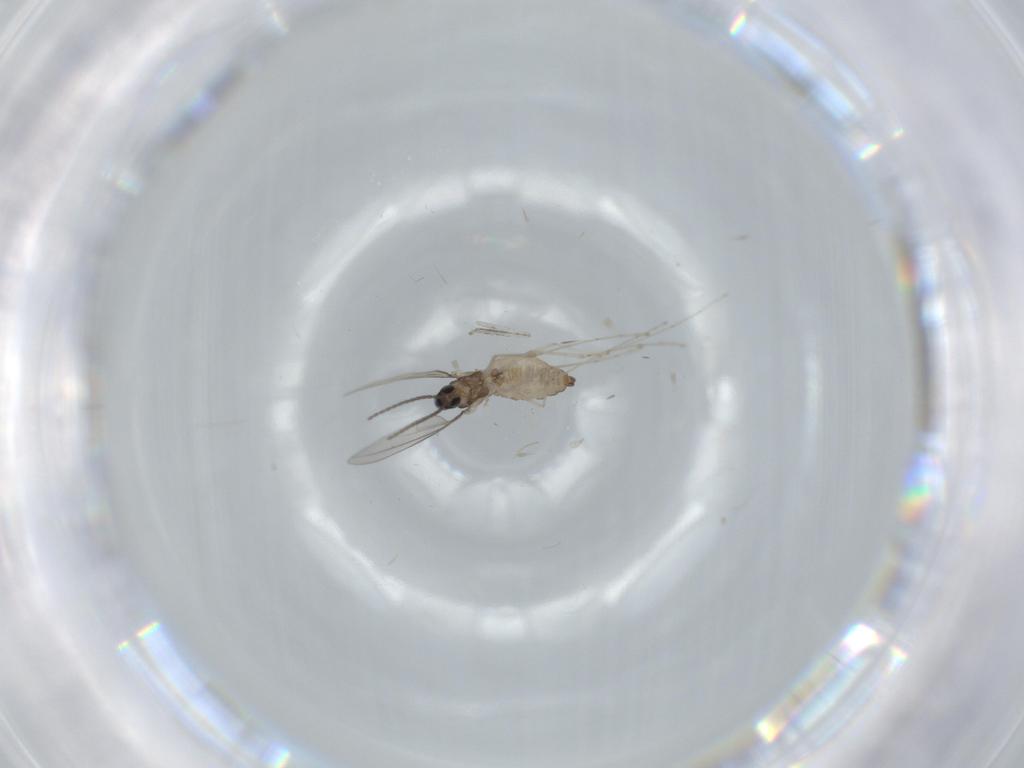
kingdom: Animalia
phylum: Arthropoda
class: Insecta
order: Diptera
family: Cecidomyiidae
